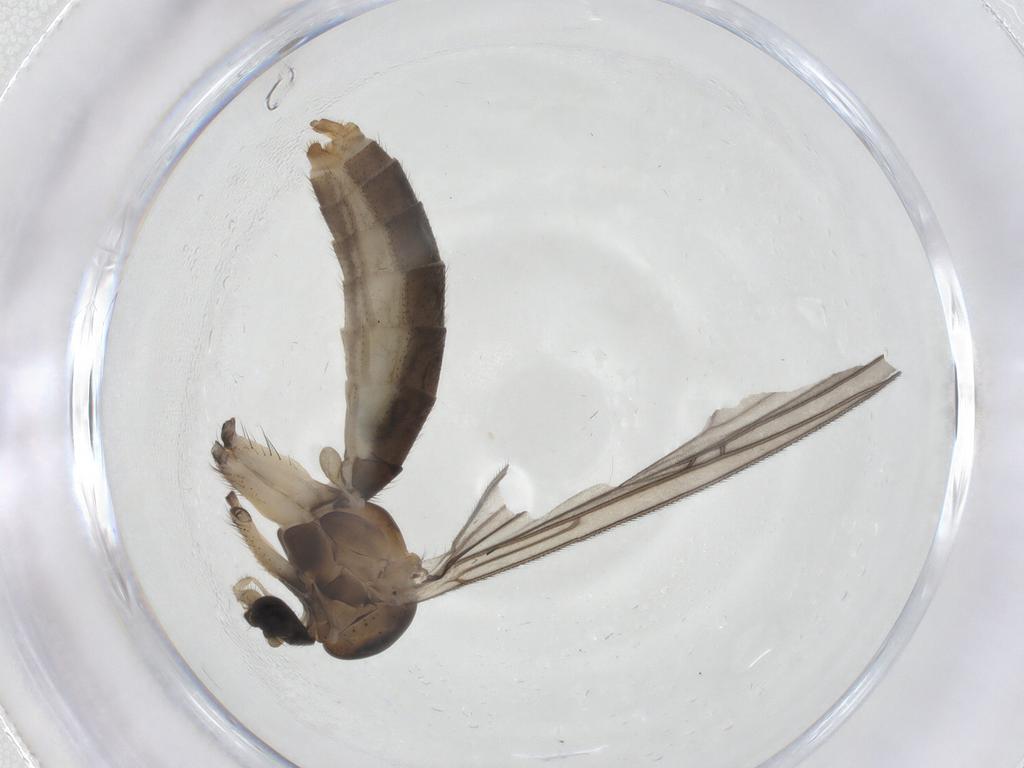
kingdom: Animalia
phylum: Arthropoda
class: Insecta
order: Diptera
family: Mycetophilidae
